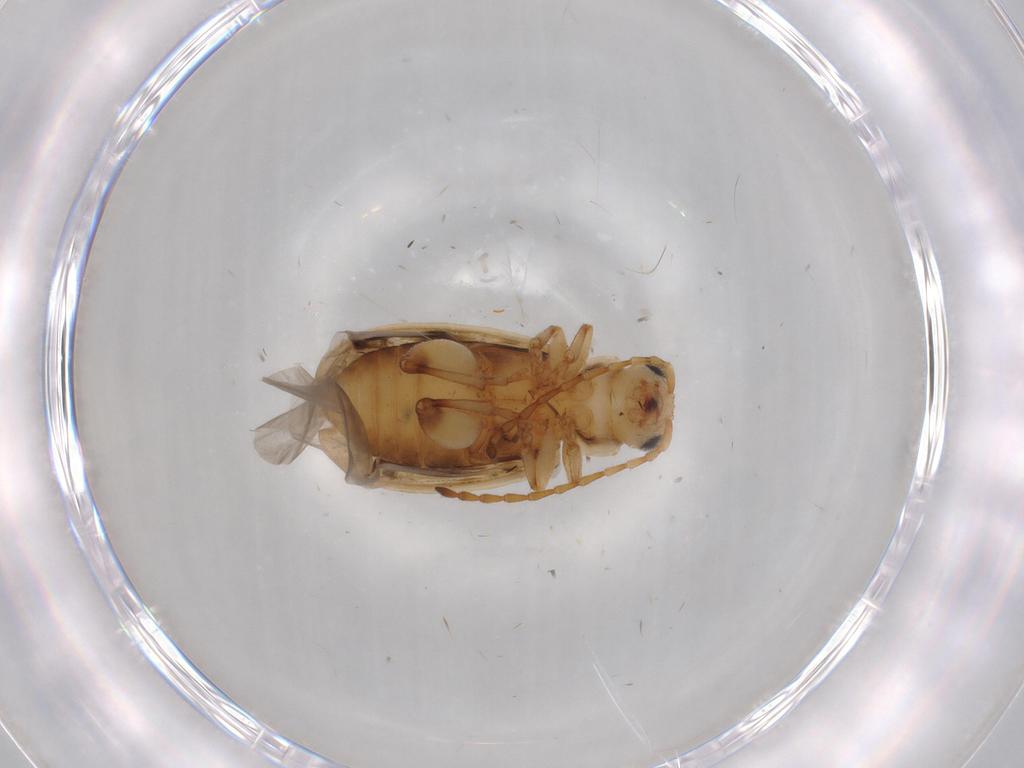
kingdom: Animalia
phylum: Arthropoda
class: Insecta
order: Coleoptera
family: Chrysomelidae
